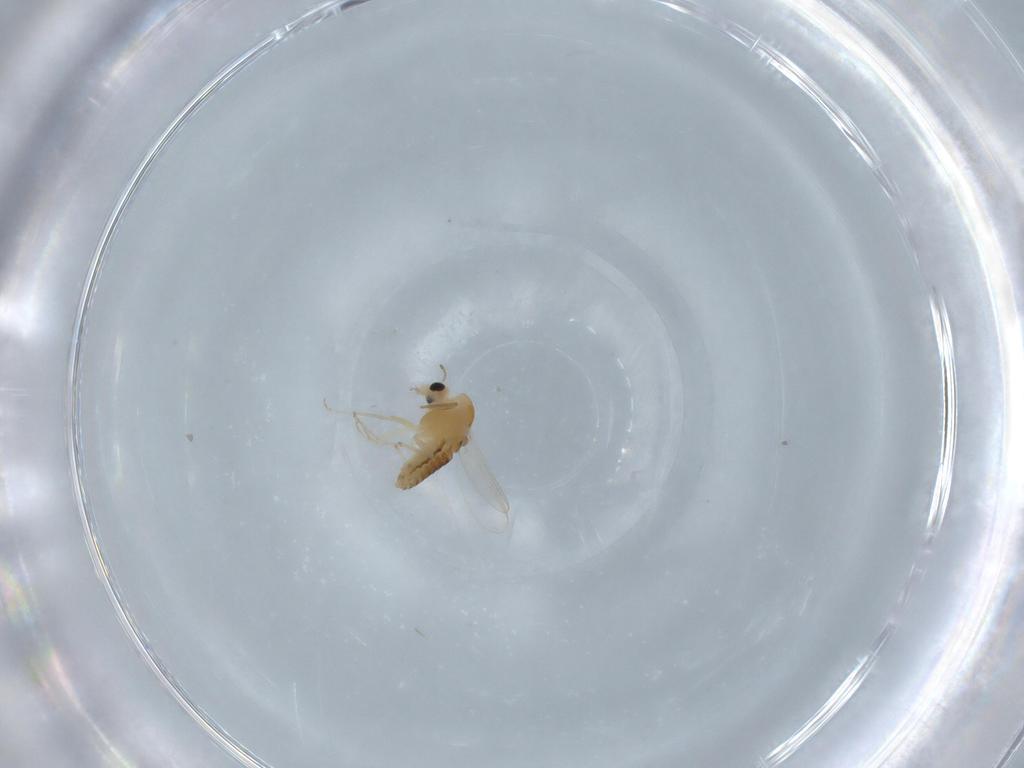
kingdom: Animalia
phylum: Arthropoda
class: Insecta
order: Diptera
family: Chironomidae
